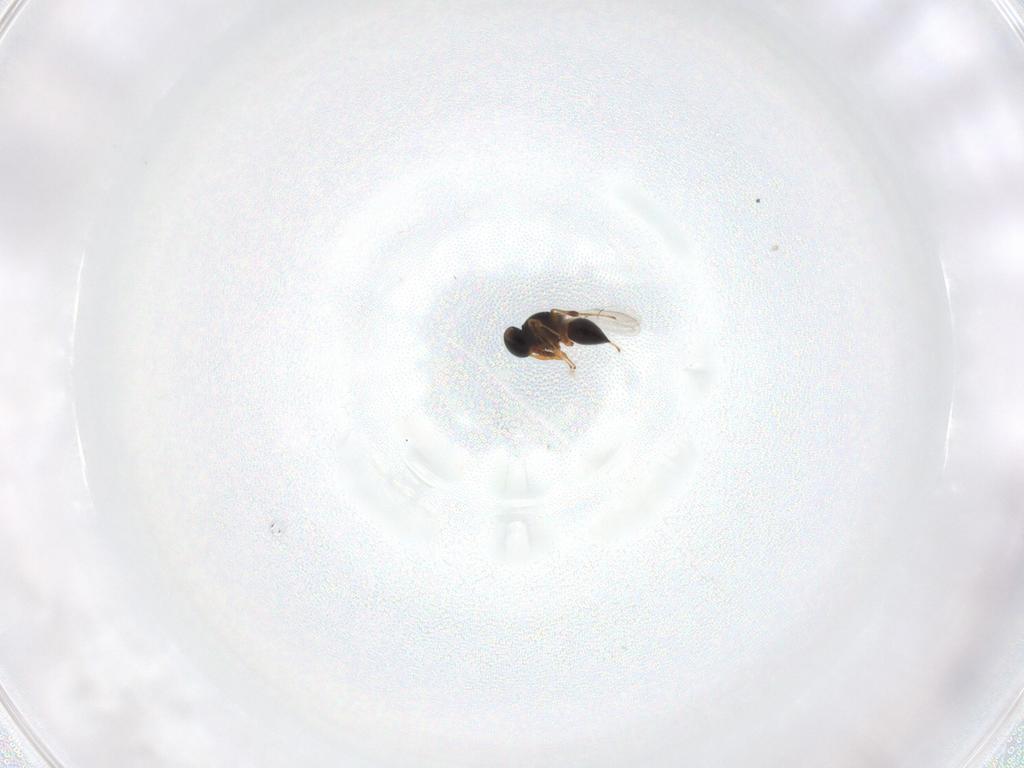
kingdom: Animalia
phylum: Arthropoda
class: Insecta
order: Hymenoptera
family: Platygastridae
